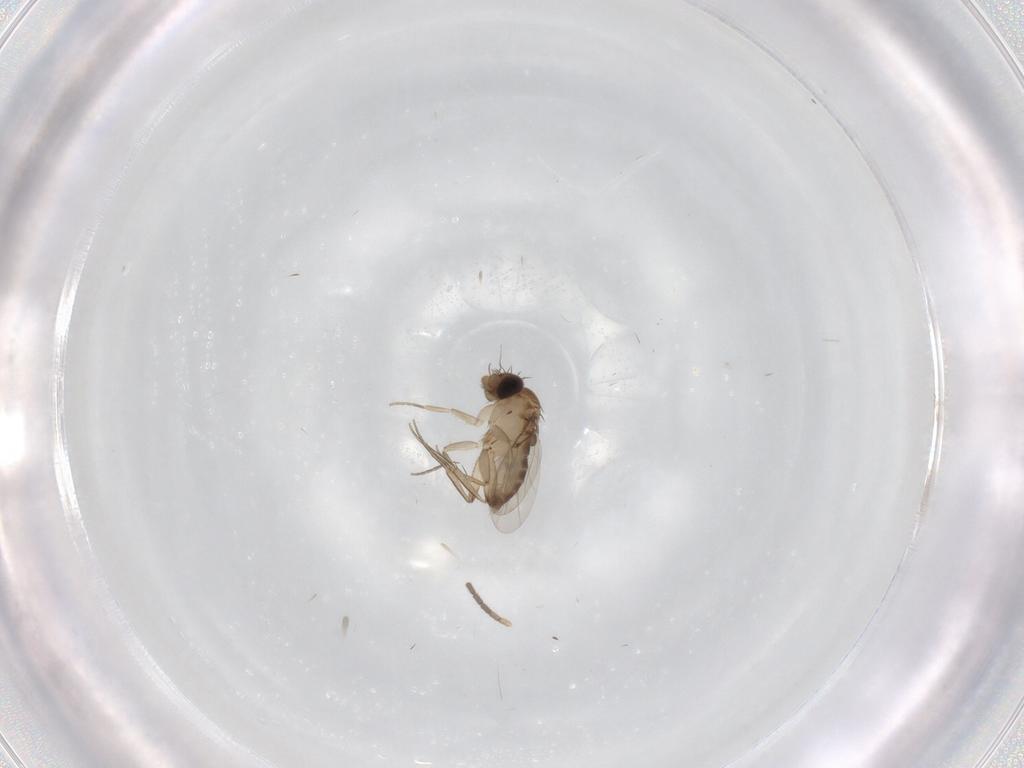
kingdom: Animalia
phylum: Arthropoda
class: Insecta
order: Diptera
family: Phoridae
